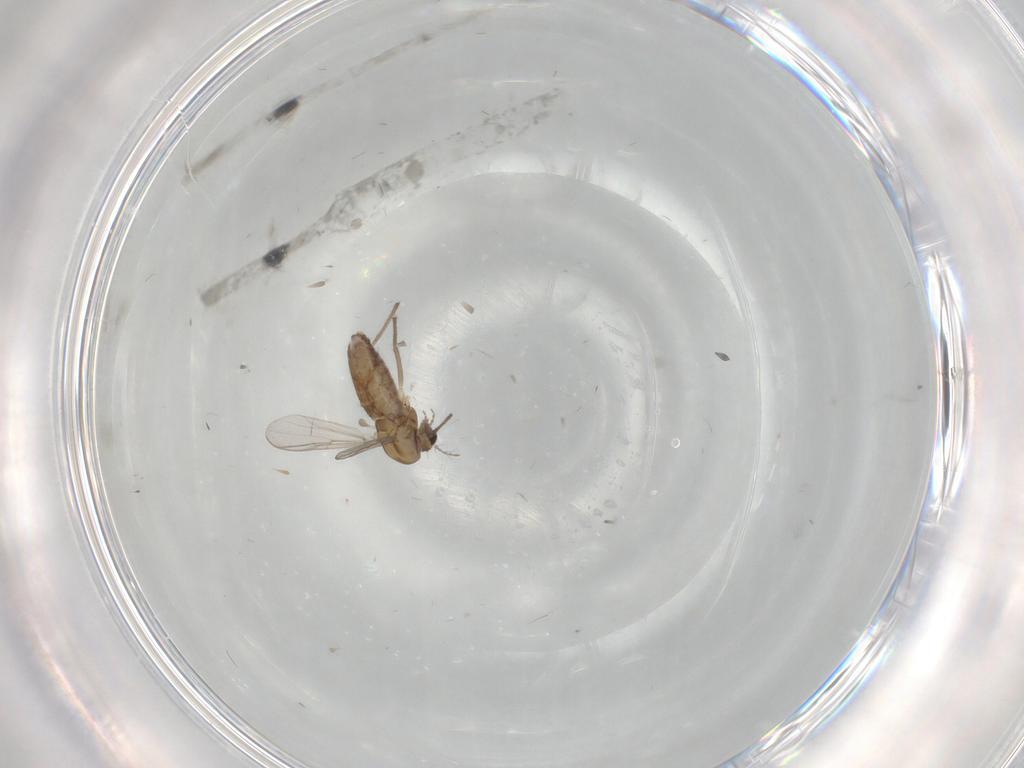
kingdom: Animalia
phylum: Arthropoda
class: Insecta
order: Diptera
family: Chironomidae
